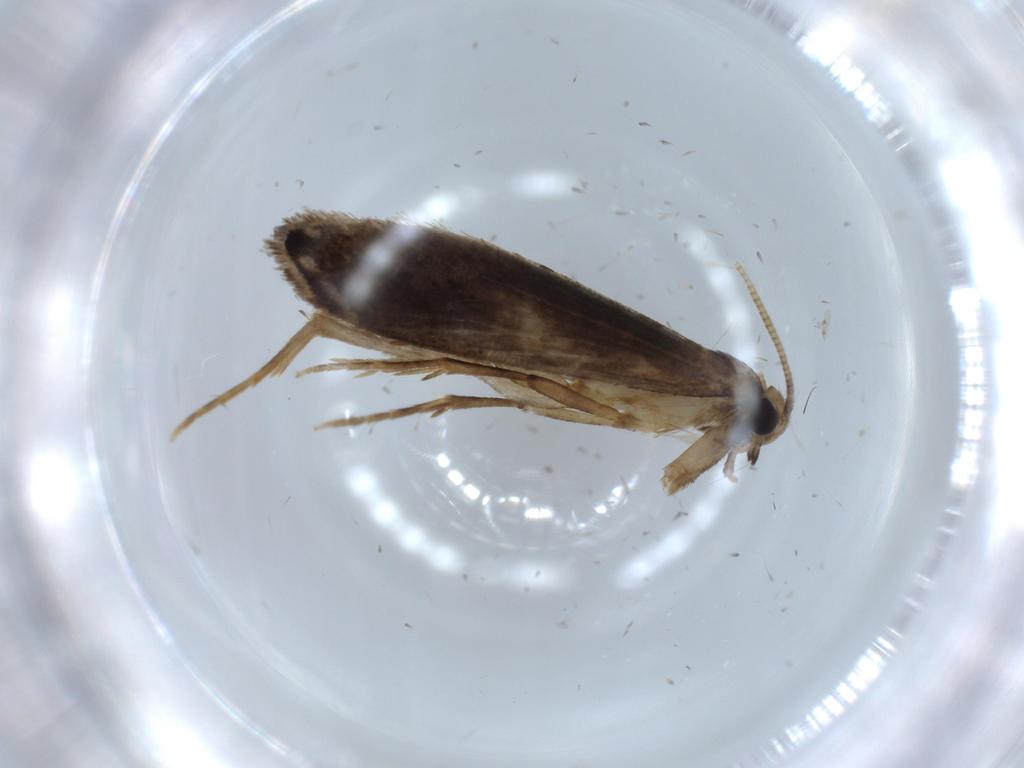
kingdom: Animalia
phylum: Arthropoda
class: Insecta
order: Lepidoptera
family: Tineidae
